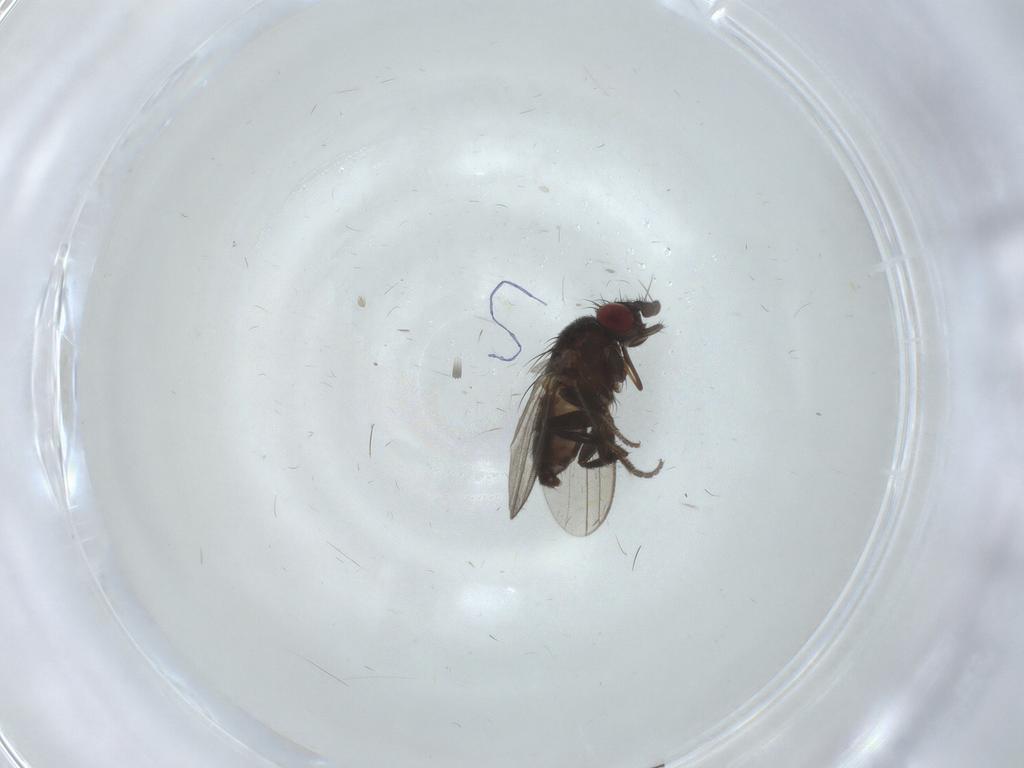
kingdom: Animalia
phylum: Arthropoda
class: Insecta
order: Diptera
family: Milichiidae
